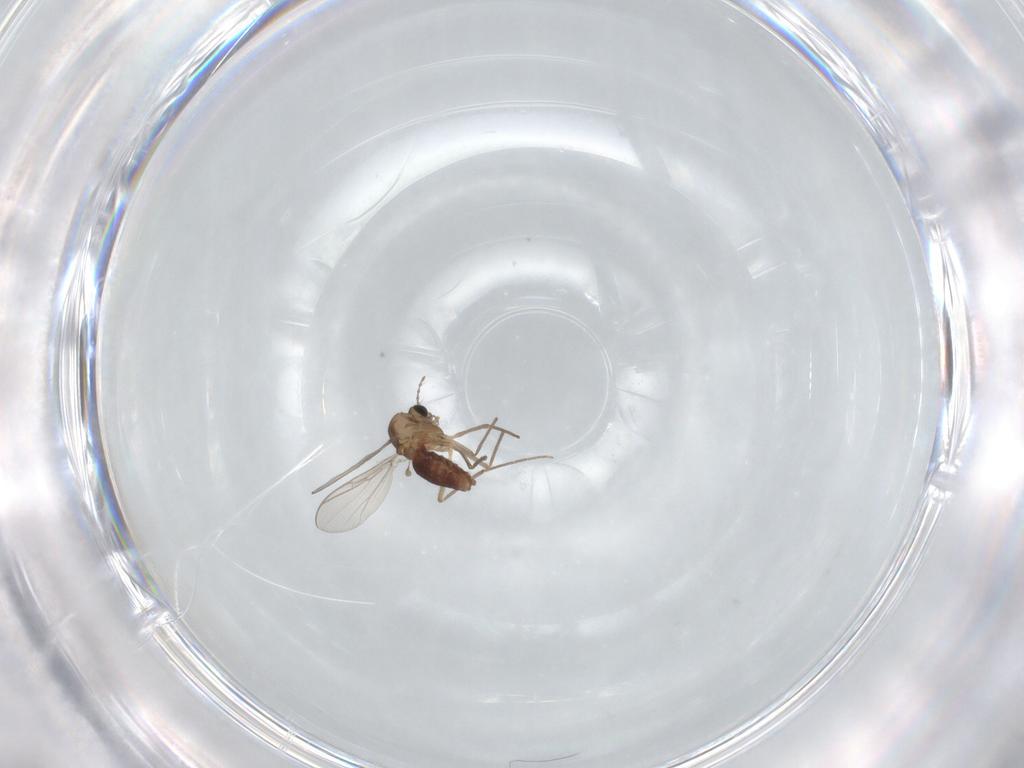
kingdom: Animalia
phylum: Arthropoda
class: Insecta
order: Diptera
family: Chironomidae
